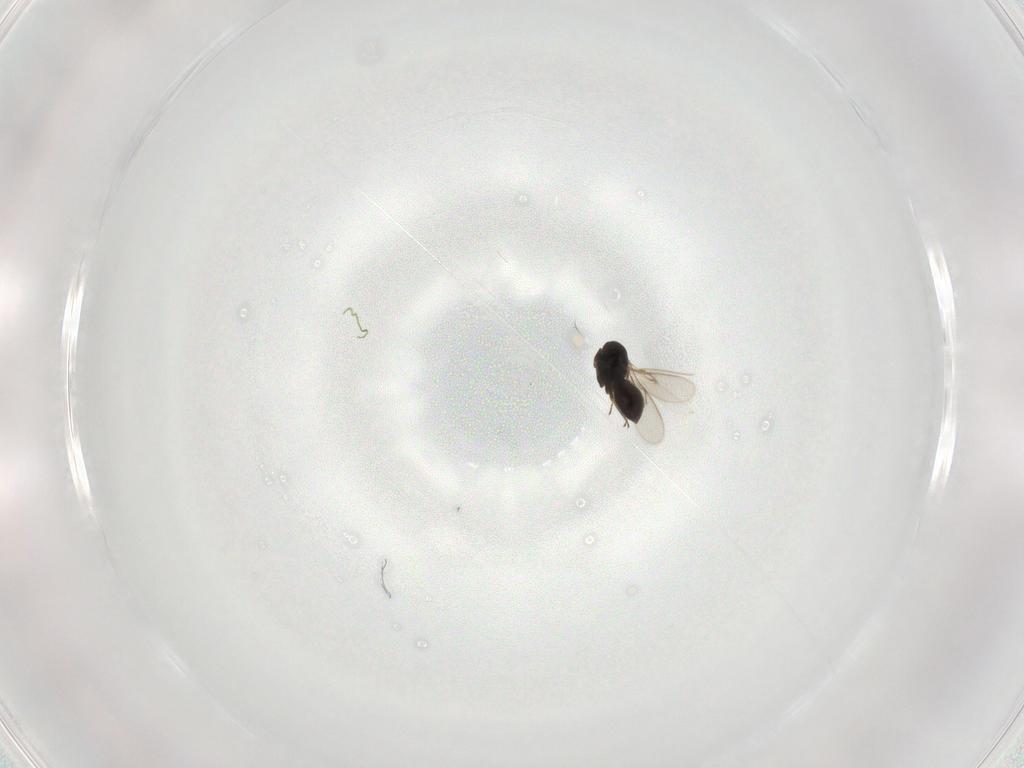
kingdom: Animalia
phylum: Arthropoda
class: Insecta
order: Hymenoptera
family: Scelionidae
